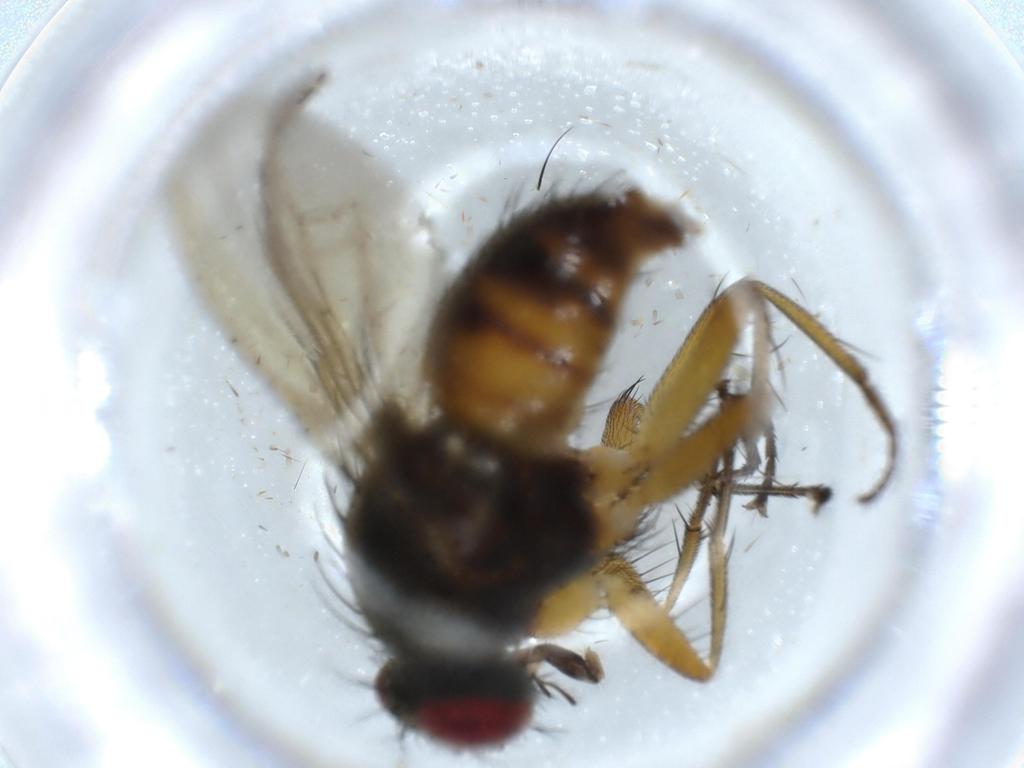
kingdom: Animalia
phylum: Arthropoda
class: Insecta
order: Diptera
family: Muscidae
